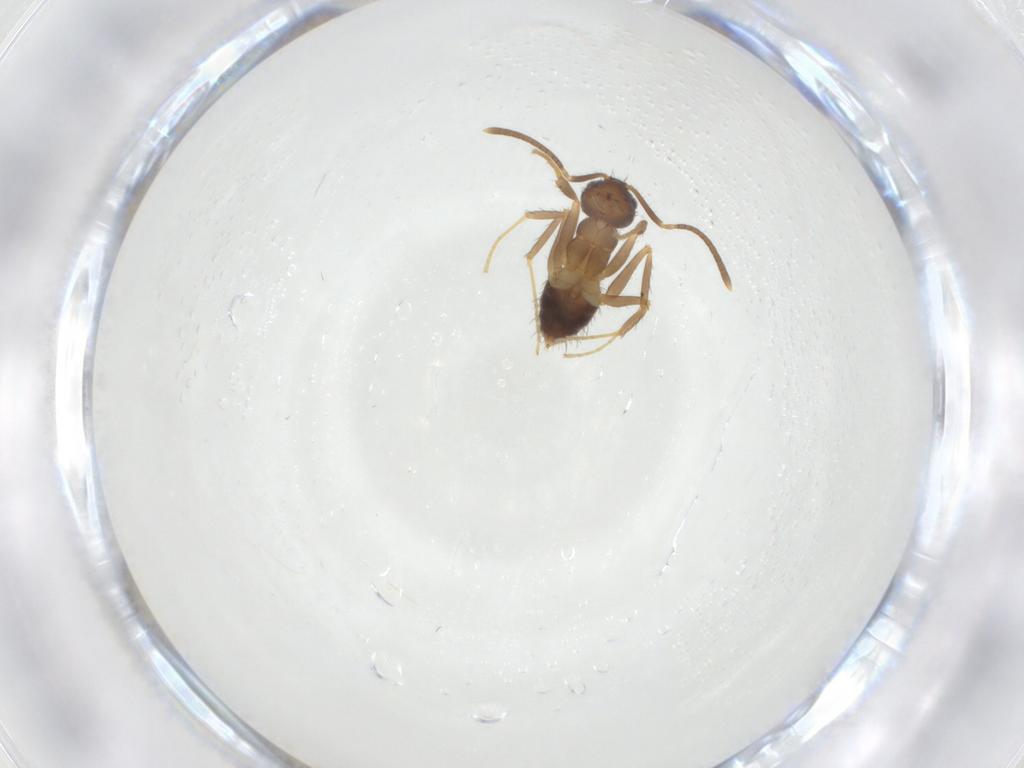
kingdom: Animalia
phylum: Arthropoda
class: Insecta
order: Hymenoptera
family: Formicidae
